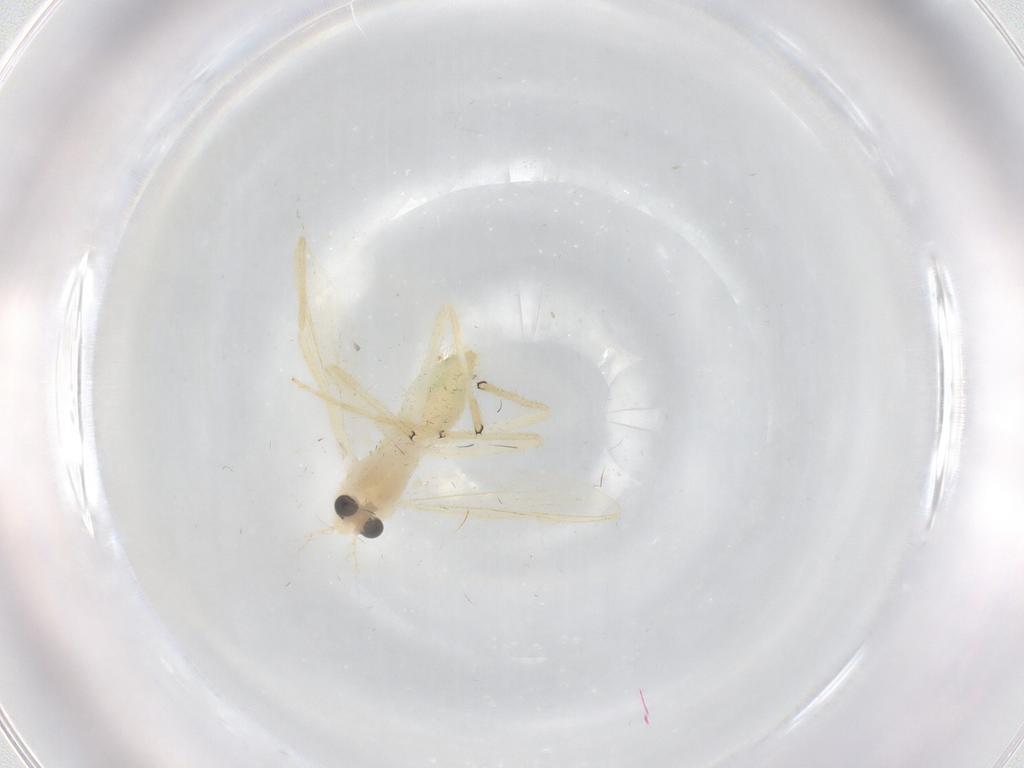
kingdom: Animalia
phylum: Arthropoda
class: Insecta
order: Diptera
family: Chironomidae
